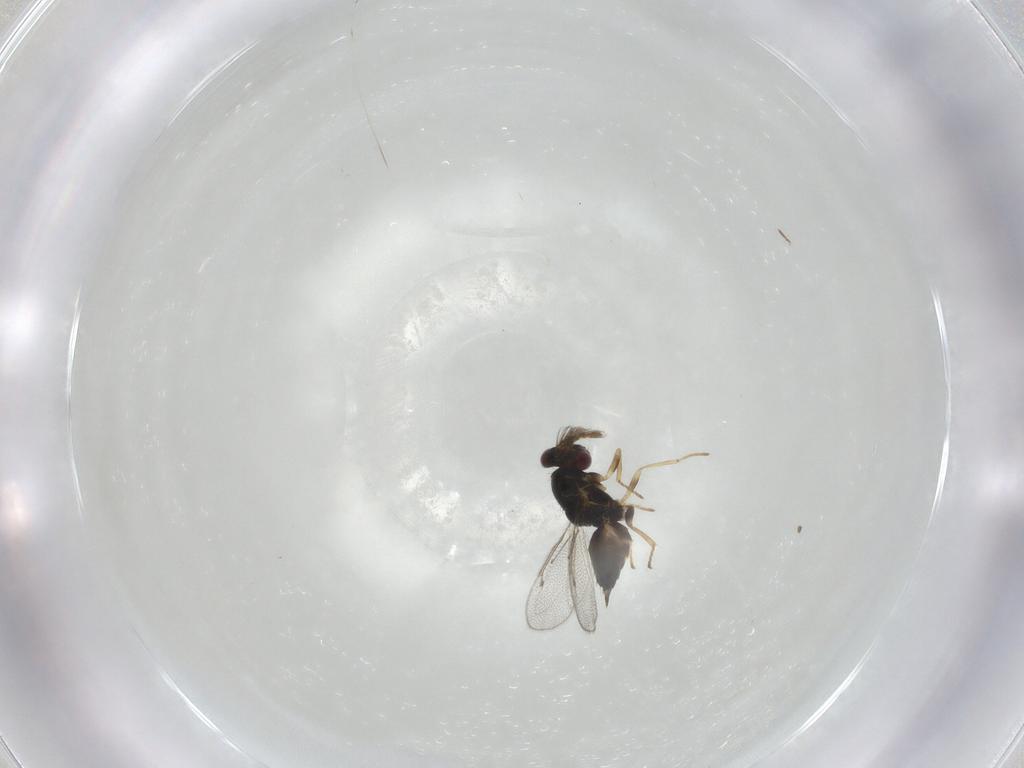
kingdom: Animalia
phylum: Arthropoda
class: Insecta
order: Hymenoptera
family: Eulophidae
